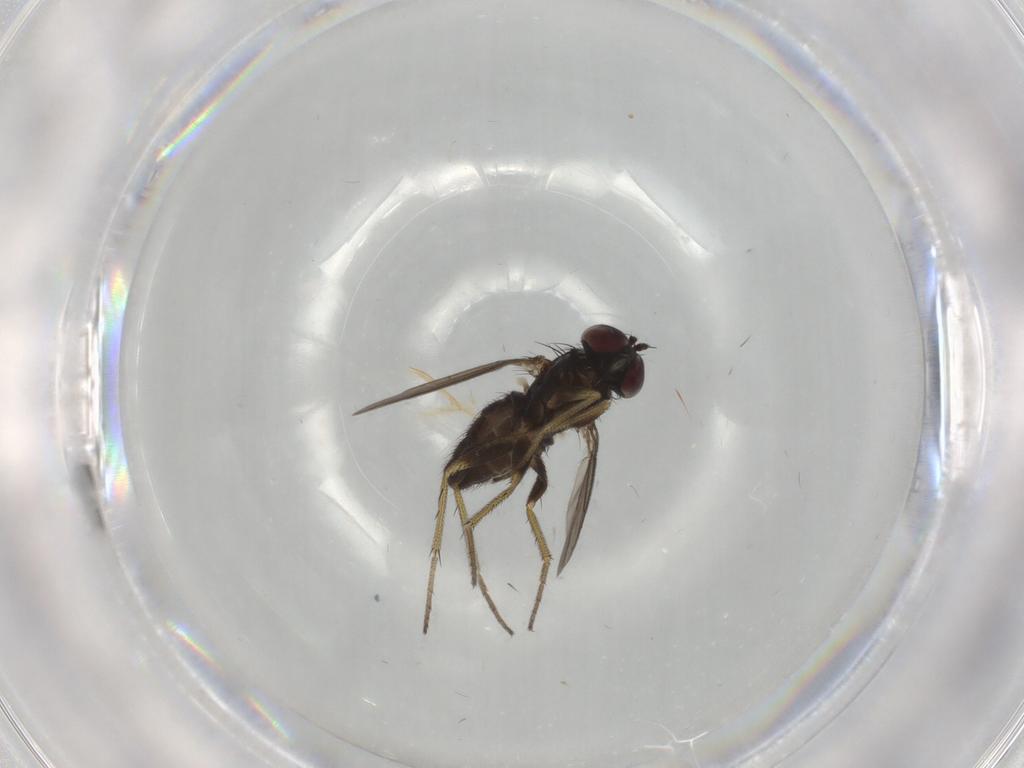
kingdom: Animalia
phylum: Arthropoda
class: Insecta
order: Diptera
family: Dolichopodidae
